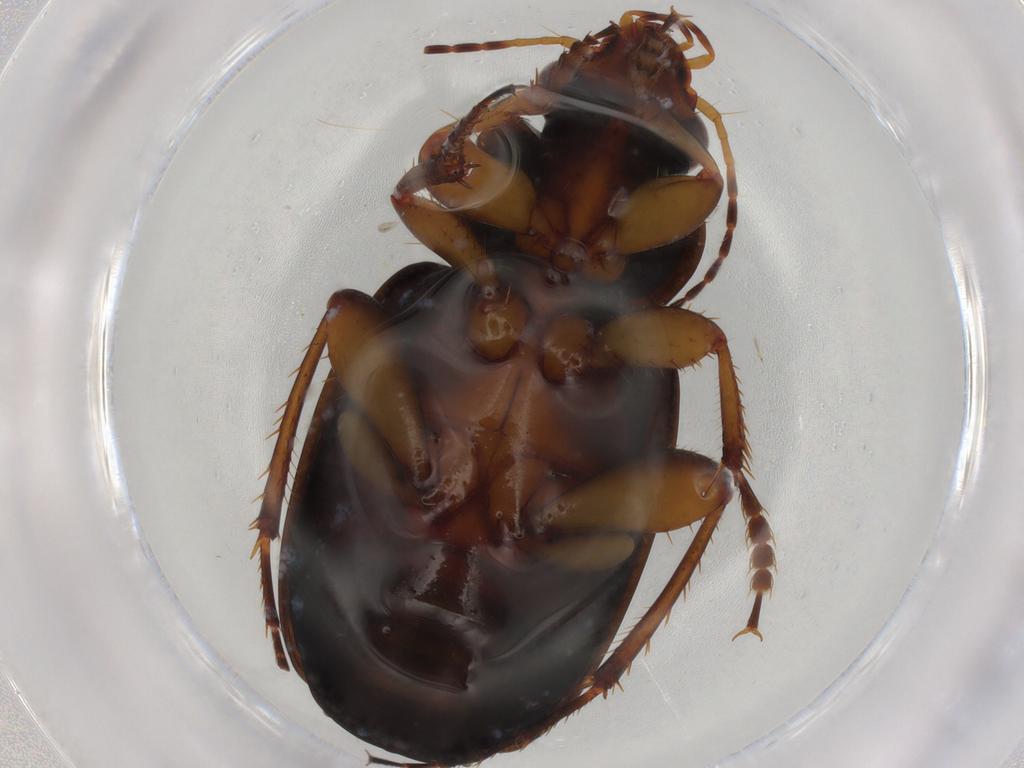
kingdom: Animalia
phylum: Arthropoda
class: Insecta
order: Coleoptera
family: Carabidae
